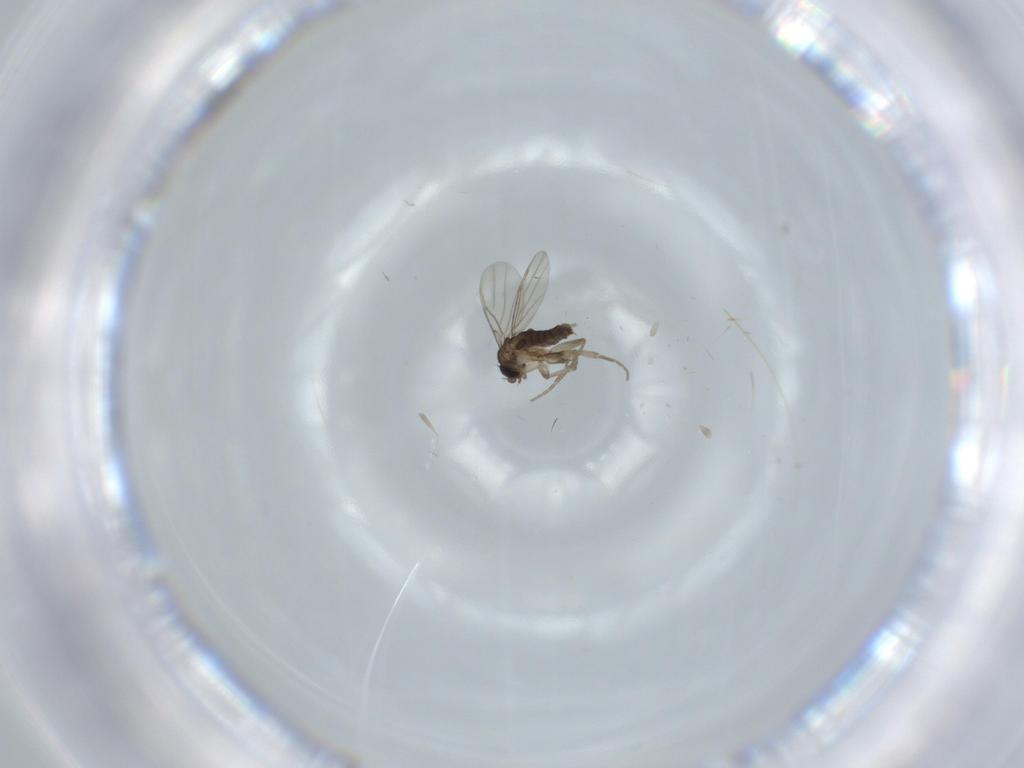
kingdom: Animalia
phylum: Arthropoda
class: Insecta
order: Diptera
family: Phoridae
